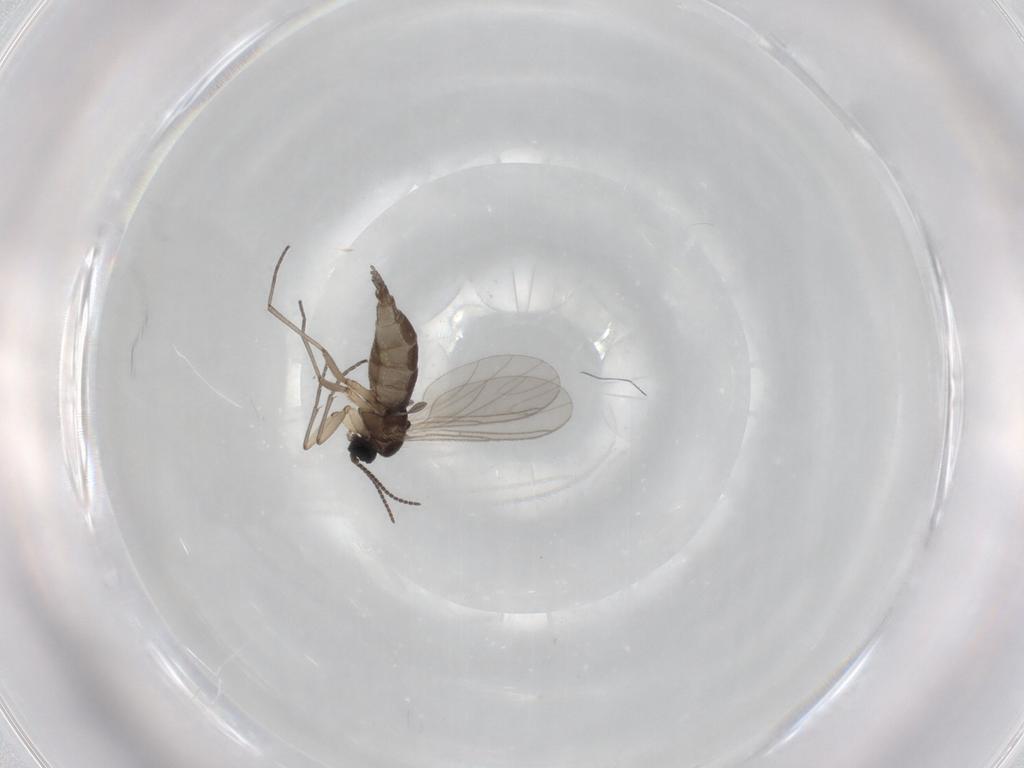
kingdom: Animalia
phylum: Arthropoda
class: Insecta
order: Diptera
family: Sciaridae
